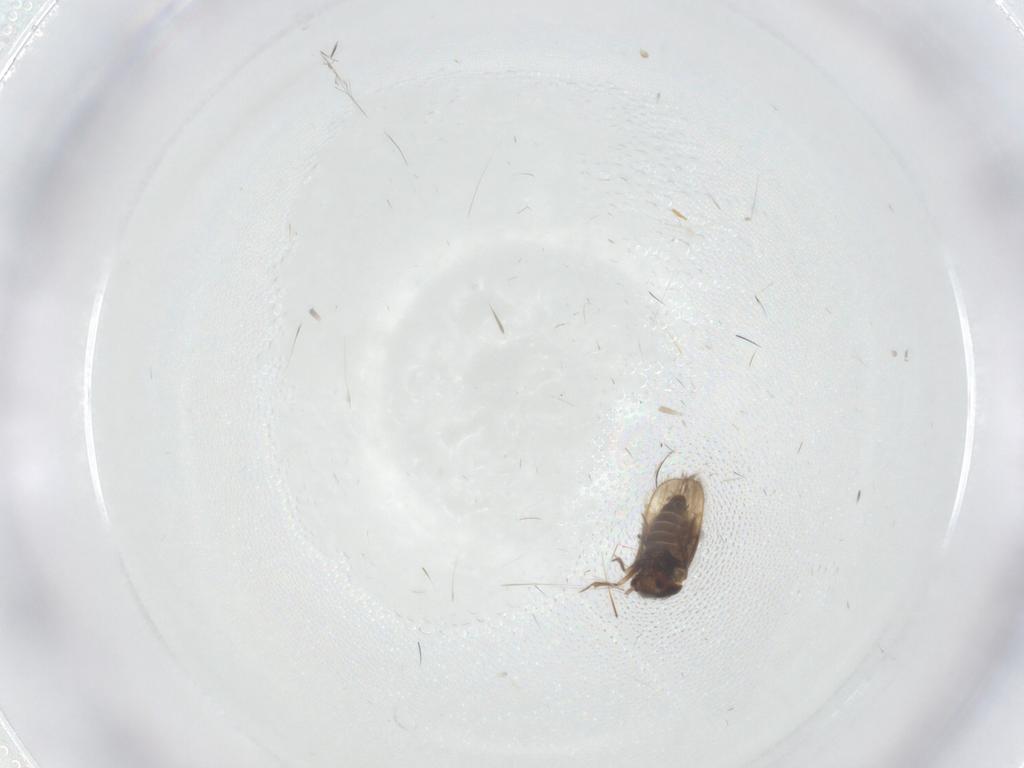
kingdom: Animalia
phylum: Arthropoda
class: Insecta
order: Hemiptera
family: Schizopteridae
